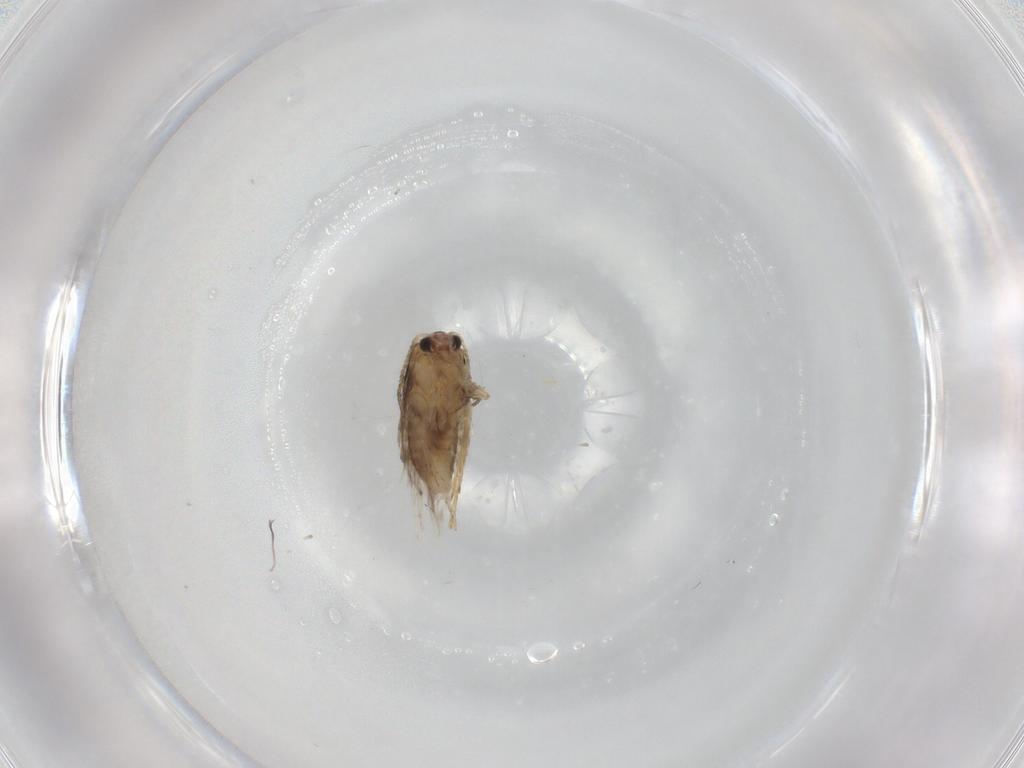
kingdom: Animalia
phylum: Arthropoda
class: Insecta
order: Lepidoptera
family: Nepticulidae
